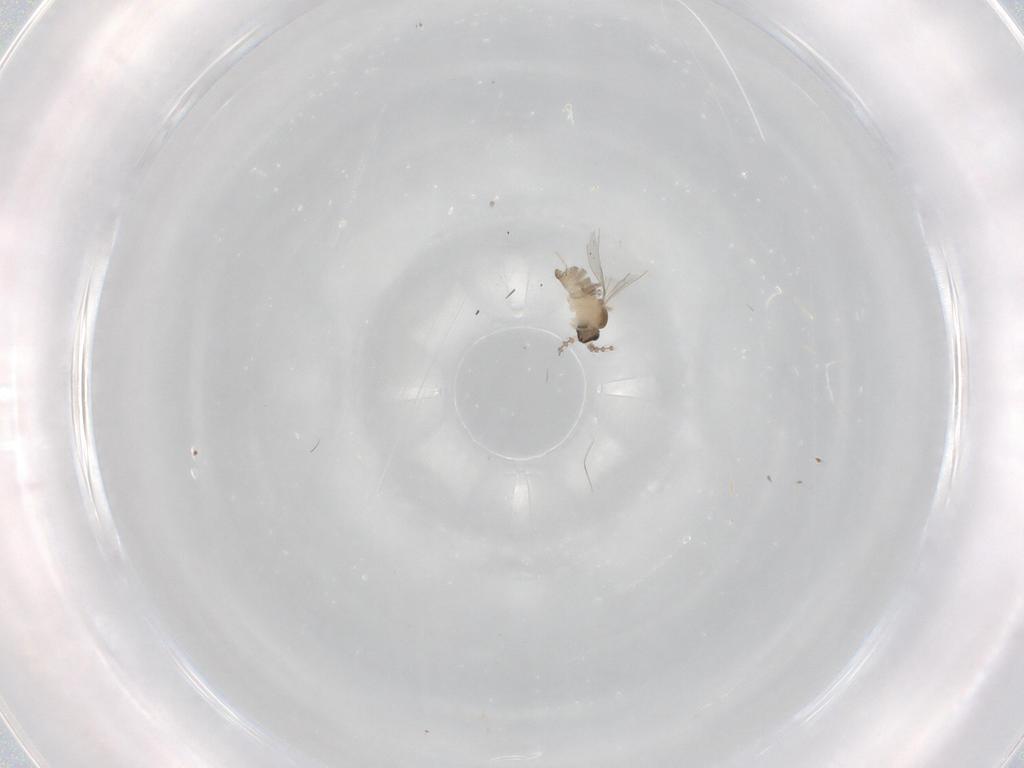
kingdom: Animalia
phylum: Arthropoda
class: Insecta
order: Diptera
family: Cecidomyiidae
